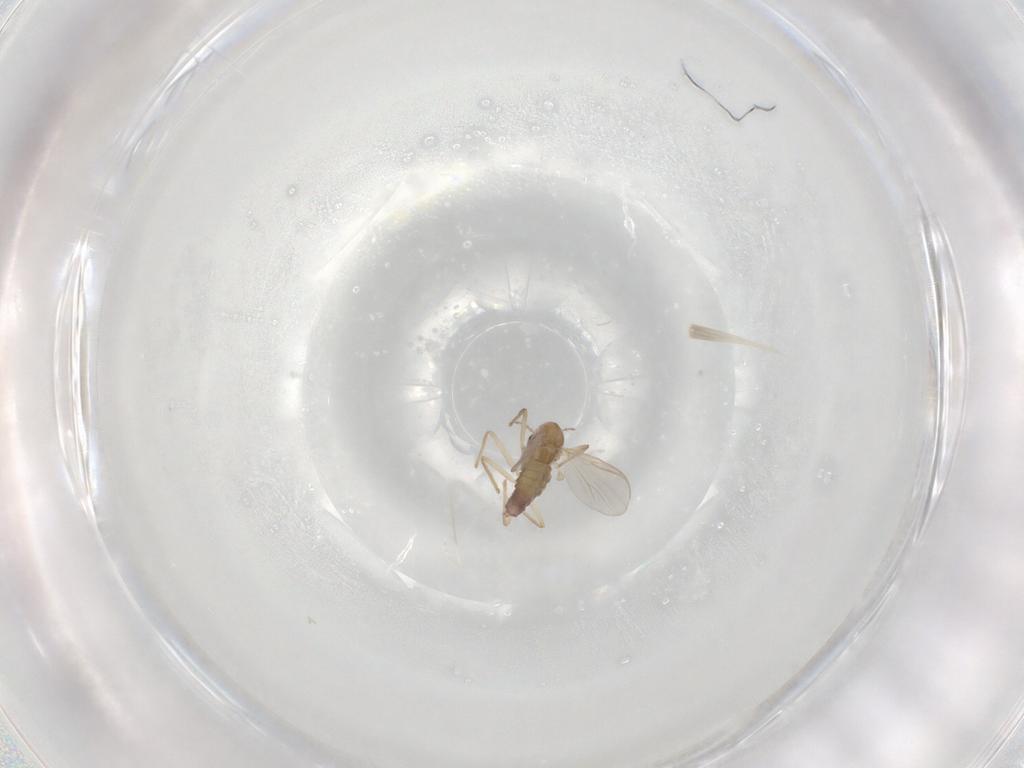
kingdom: Animalia
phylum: Arthropoda
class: Insecta
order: Diptera
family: Chironomidae
